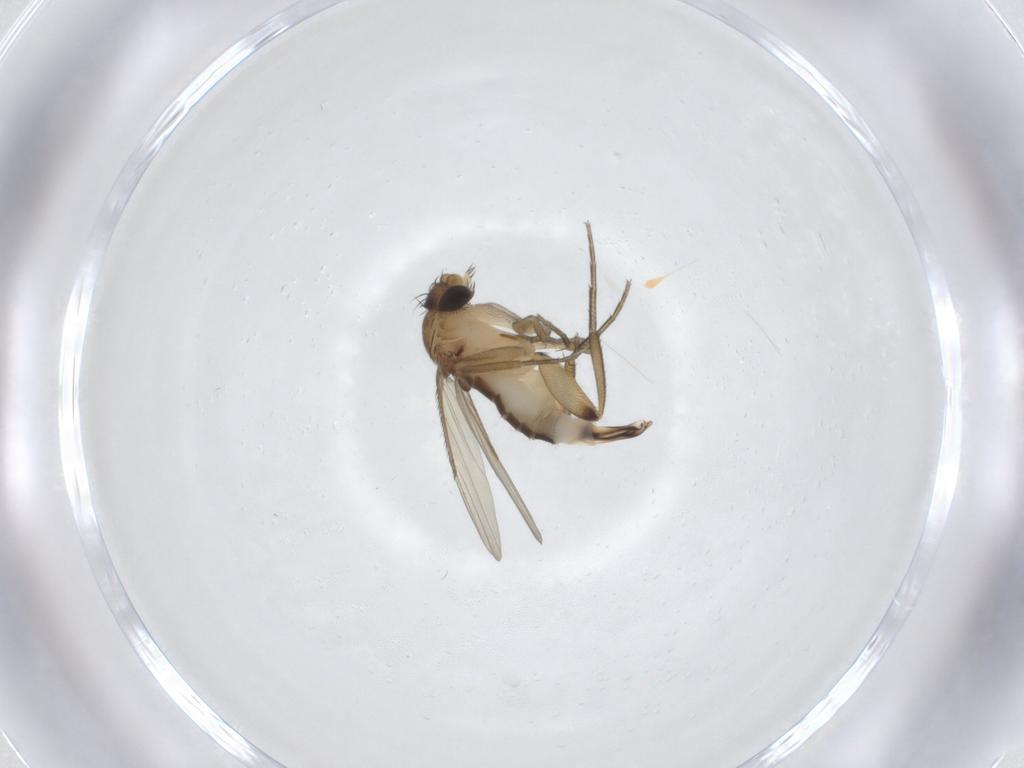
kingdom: Animalia
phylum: Arthropoda
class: Insecta
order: Diptera
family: Phoridae
